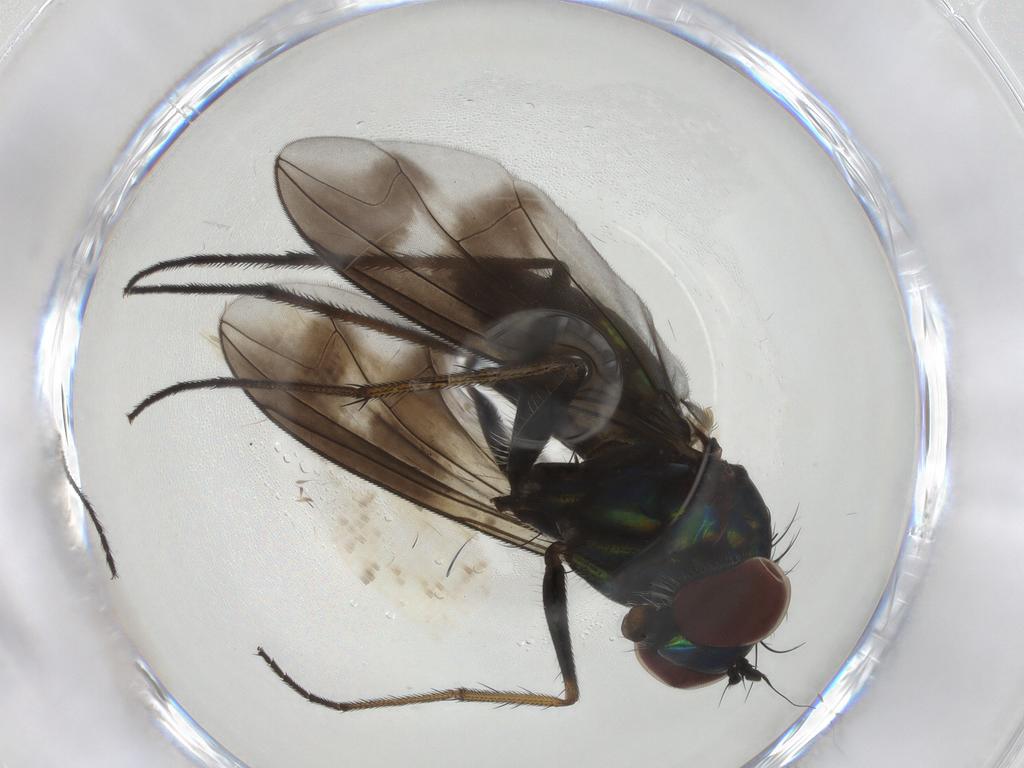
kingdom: Animalia
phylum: Arthropoda
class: Insecta
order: Diptera
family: Dolichopodidae
